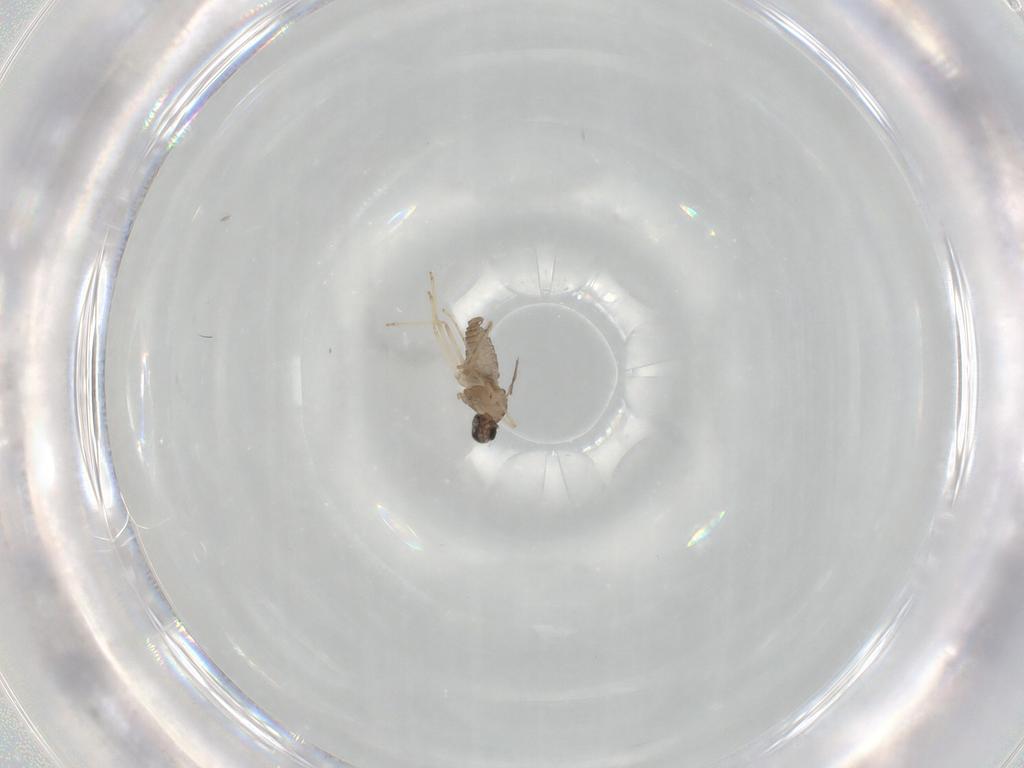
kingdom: Animalia
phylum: Arthropoda
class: Insecta
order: Diptera
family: Cecidomyiidae
